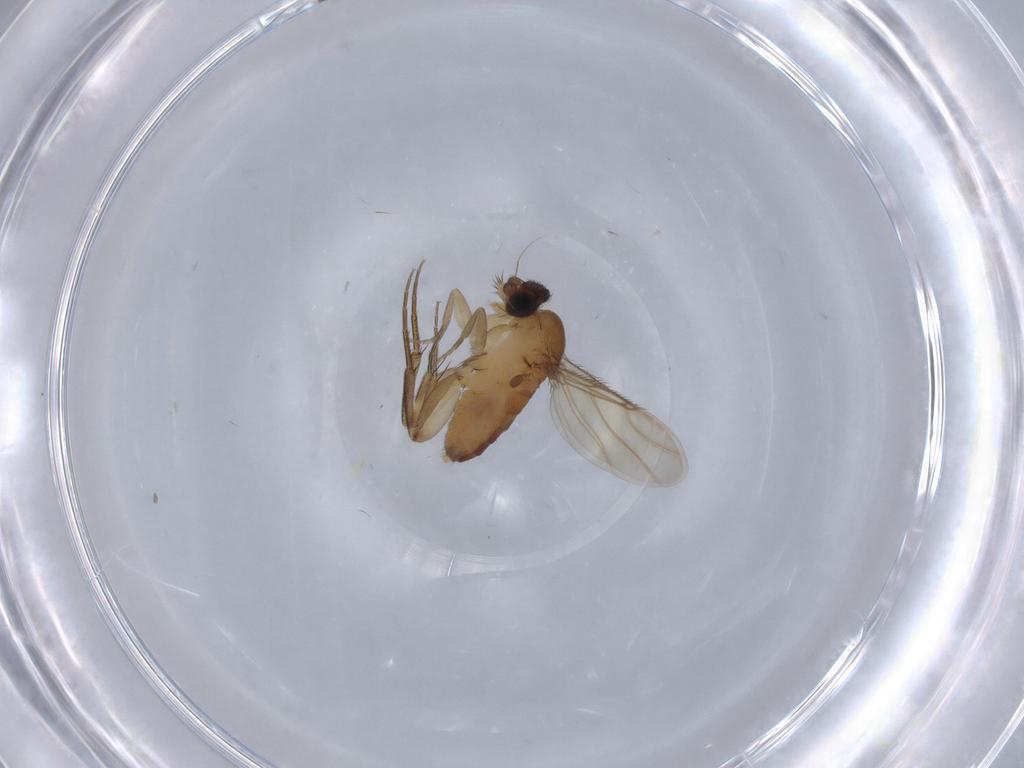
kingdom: Animalia
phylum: Arthropoda
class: Insecta
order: Diptera
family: Phoridae
